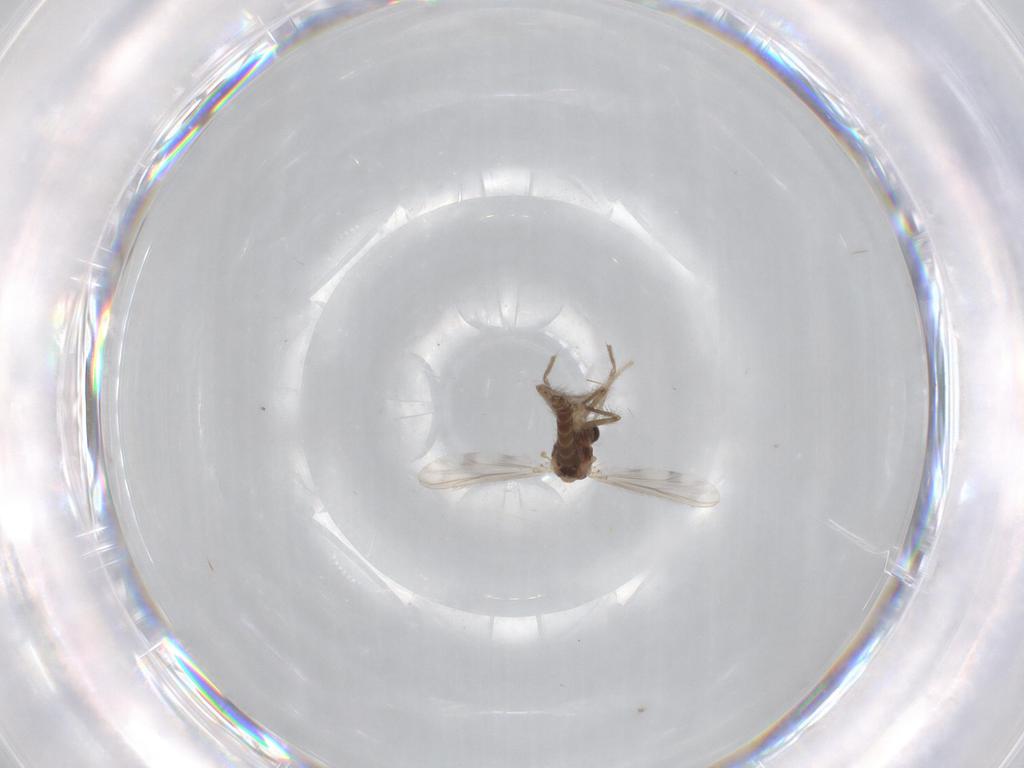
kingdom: Animalia
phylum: Arthropoda
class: Insecta
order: Diptera
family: Chironomidae
